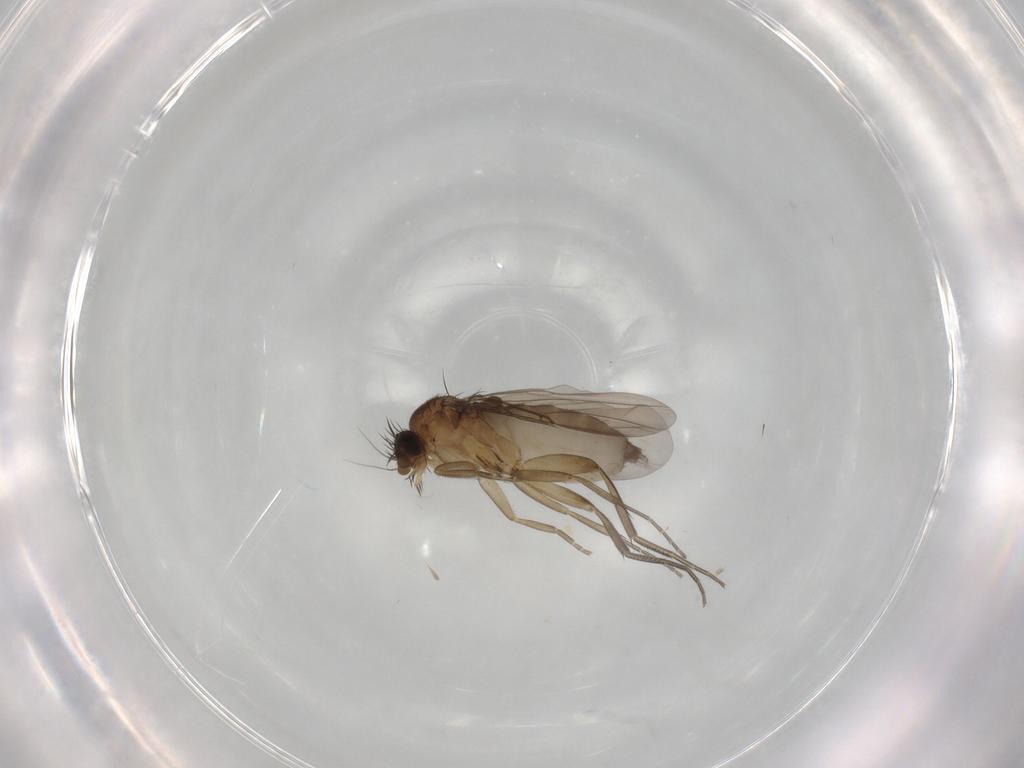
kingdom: Animalia
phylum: Arthropoda
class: Insecta
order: Diptera
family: Phoridae
